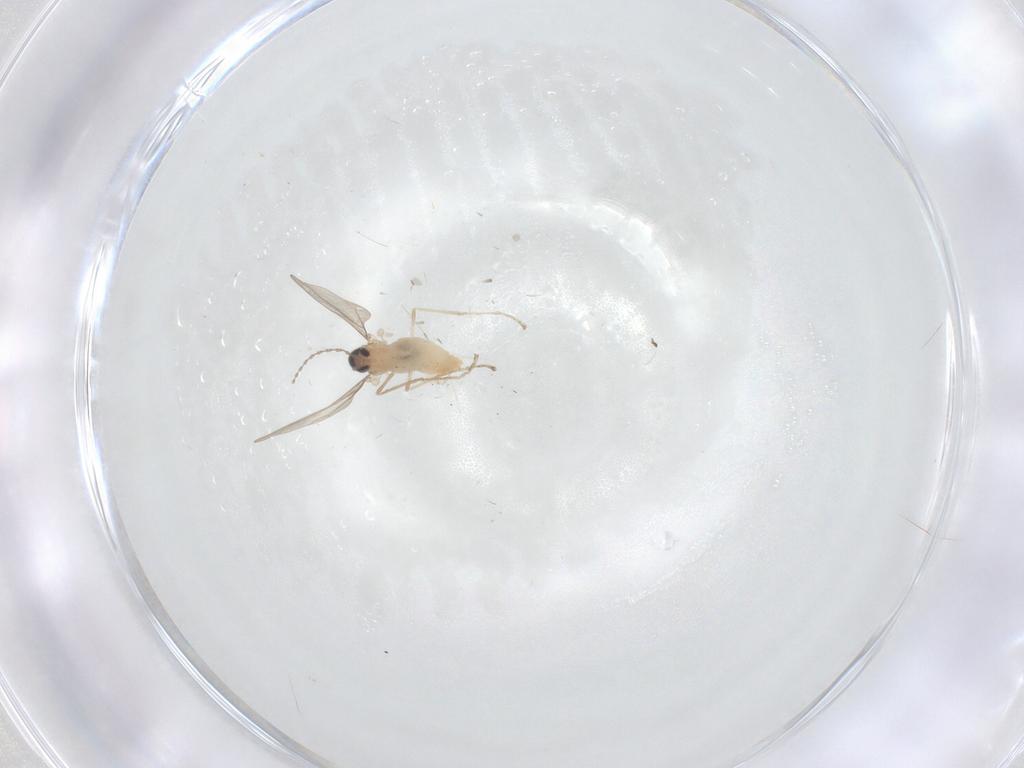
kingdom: Animalia
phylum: Arthropoda
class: Insecta
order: Diptera
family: Cecidomyiidae
